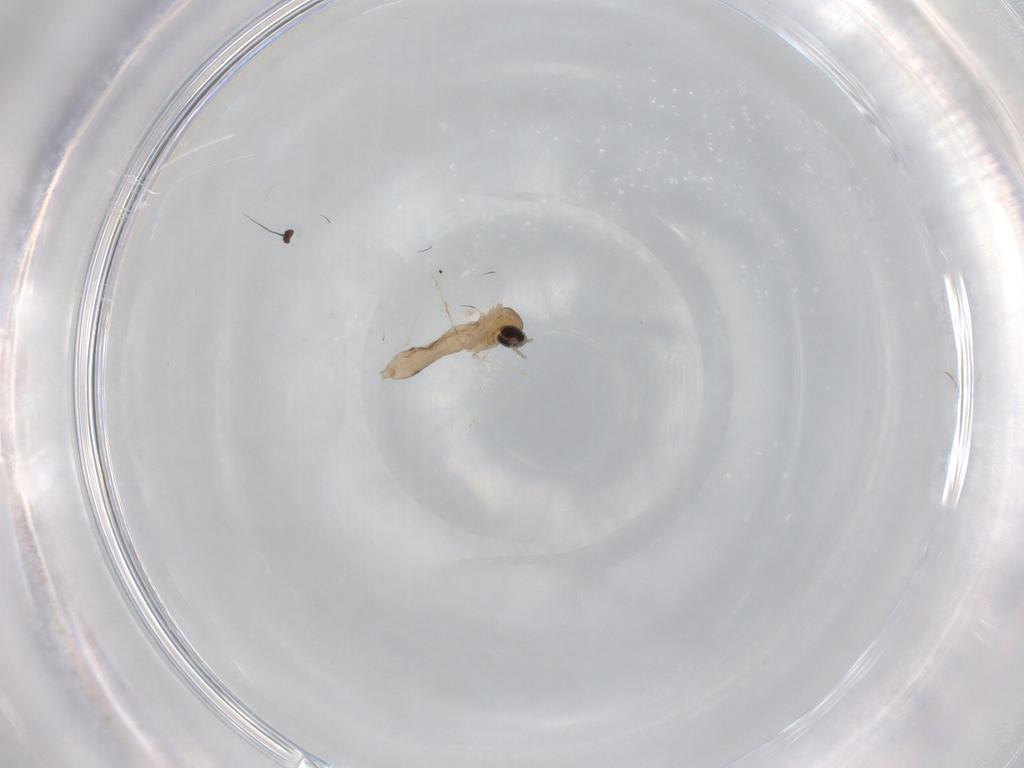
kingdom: Animalia
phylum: Arthropoda
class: Insecta
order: Diptera
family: Dolichopodidae
